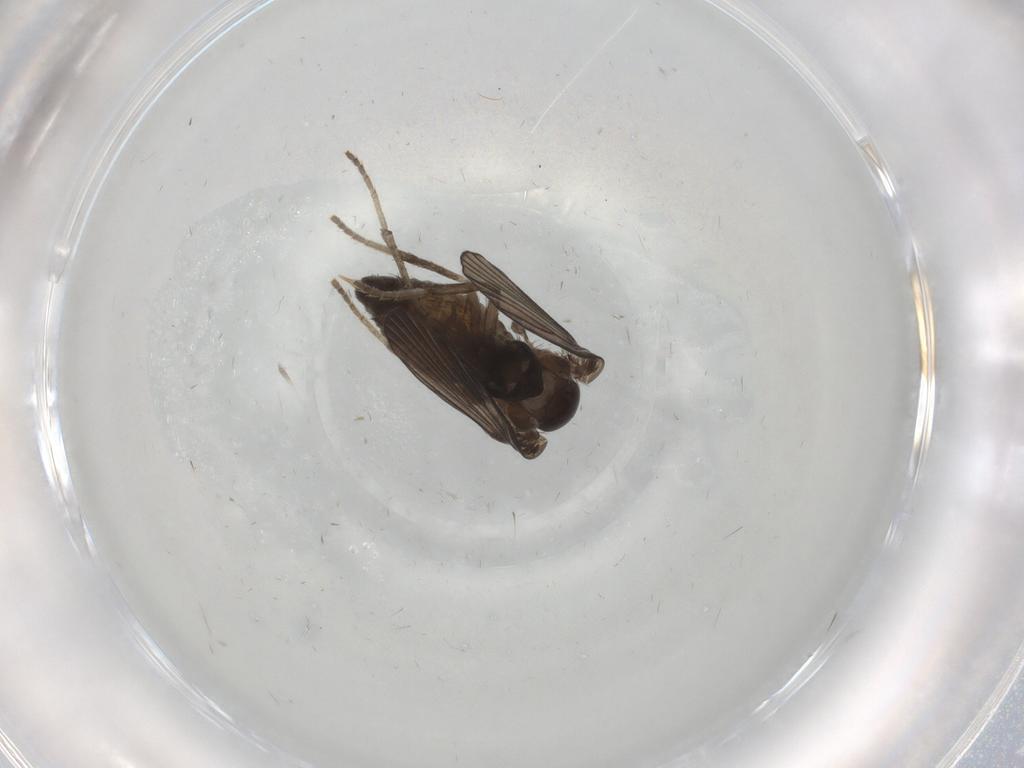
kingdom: Animalia
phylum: Arthropoda
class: Insecta
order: Diptera
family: Psychodidae
